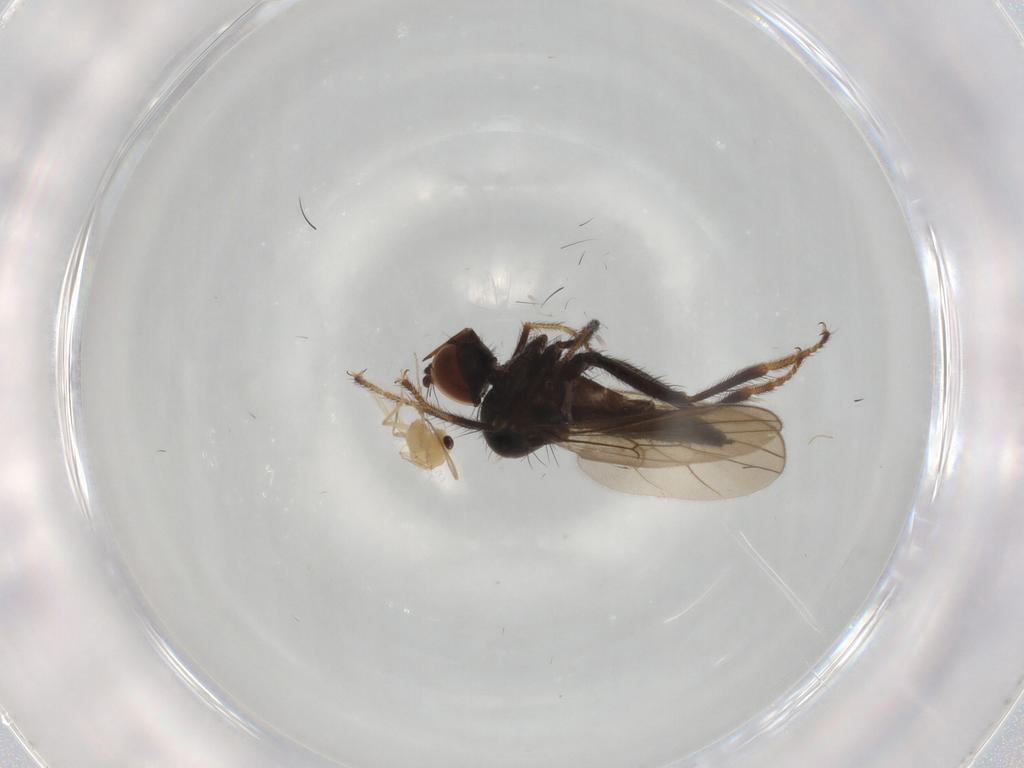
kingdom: Animalia
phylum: Arthropoda
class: Insecta
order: Diptera
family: Hybotidae
